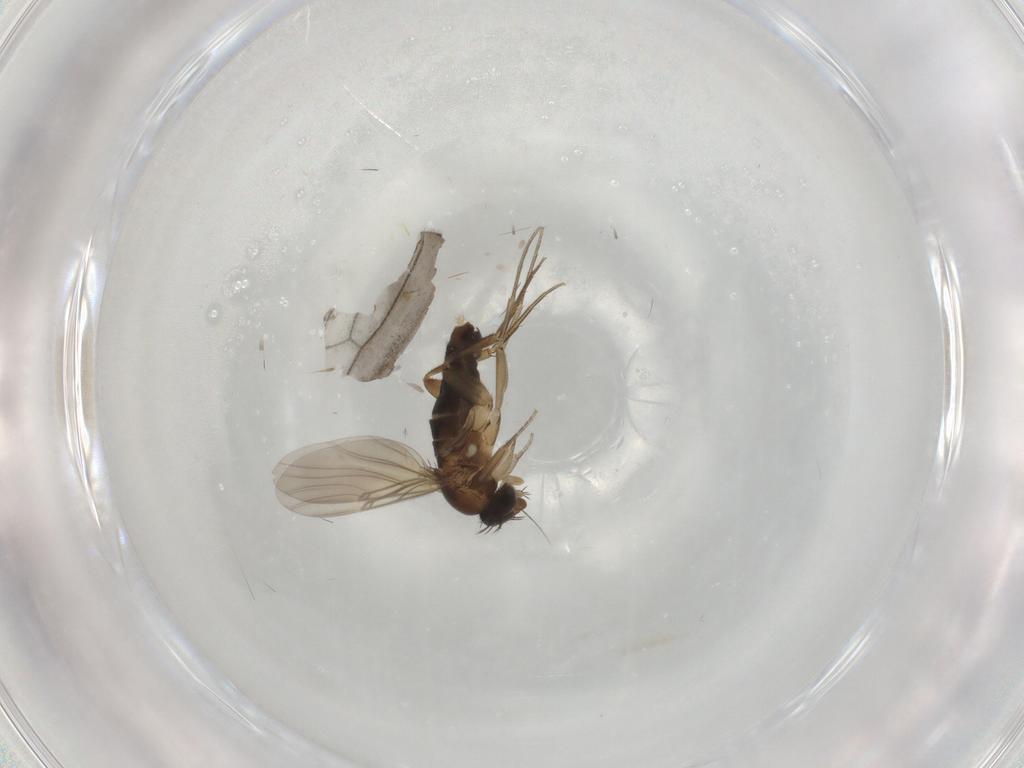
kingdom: Animalia
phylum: Arthropoda
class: Insecta
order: Diptera
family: Phoridae
